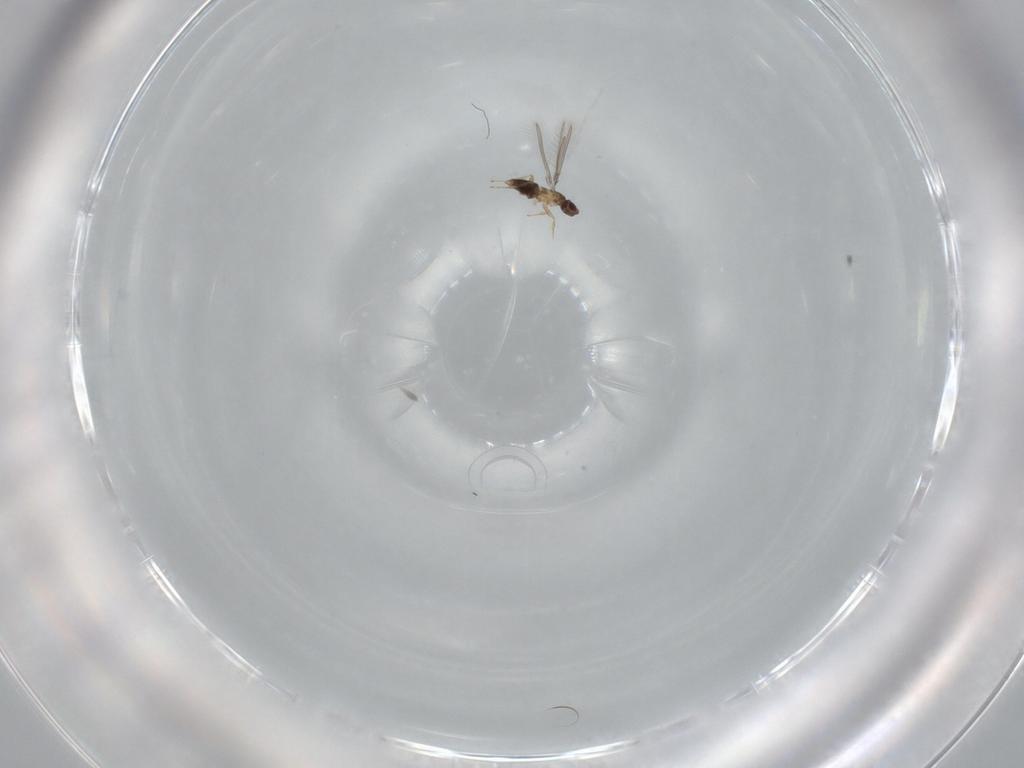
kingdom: Animalia
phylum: Arthropoda
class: Insecta
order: Hymenoptera
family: Mymaridae
